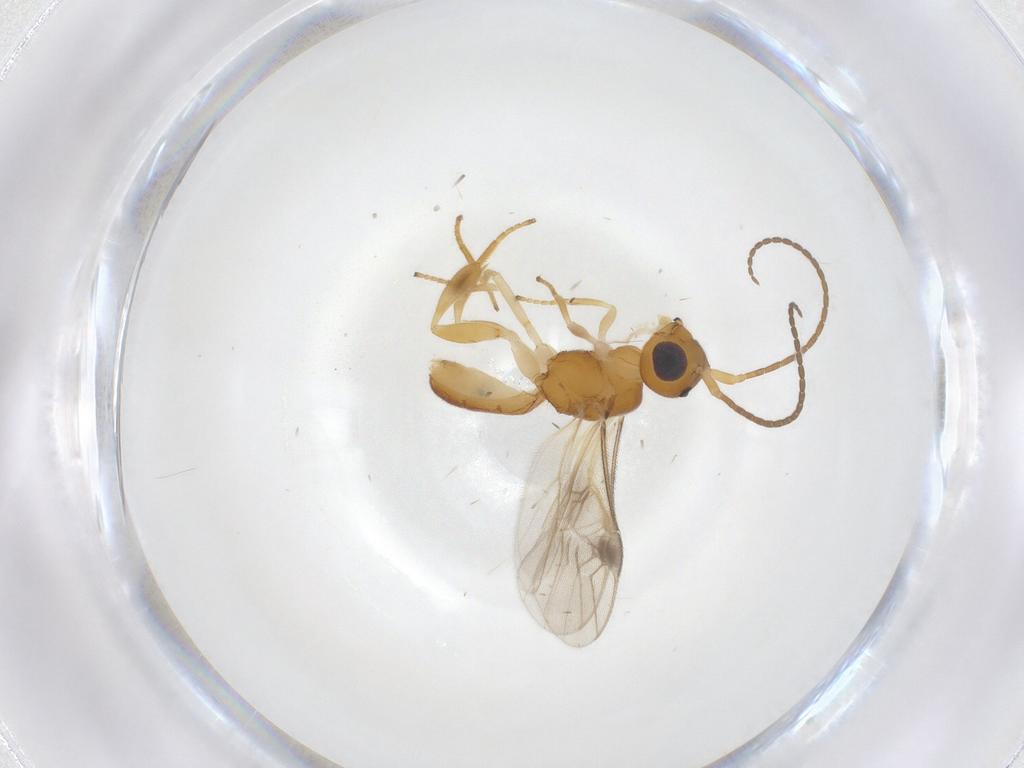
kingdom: Animalia
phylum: Arthropoda
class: Insecta
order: Hymenoptera
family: Braconidae
